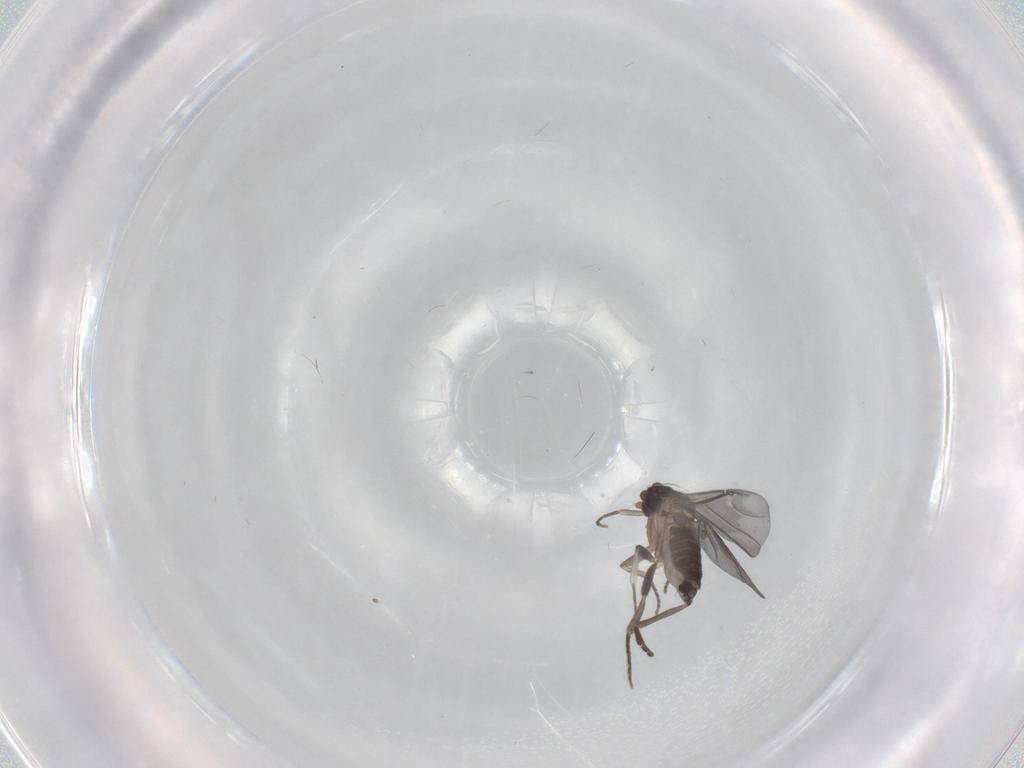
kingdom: Animalia
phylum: Arthropoda
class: Insecta
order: Diptera
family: Phoridae
